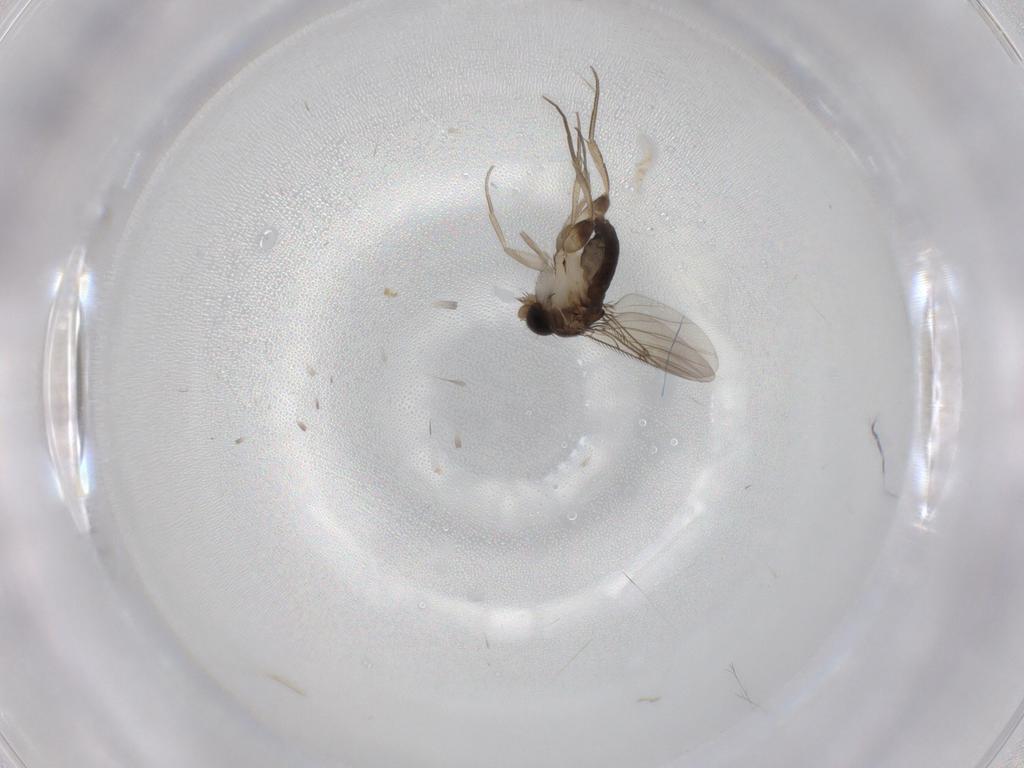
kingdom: Animalia
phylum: Arthropoda
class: Insecta
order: Diptera
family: Phoridae
